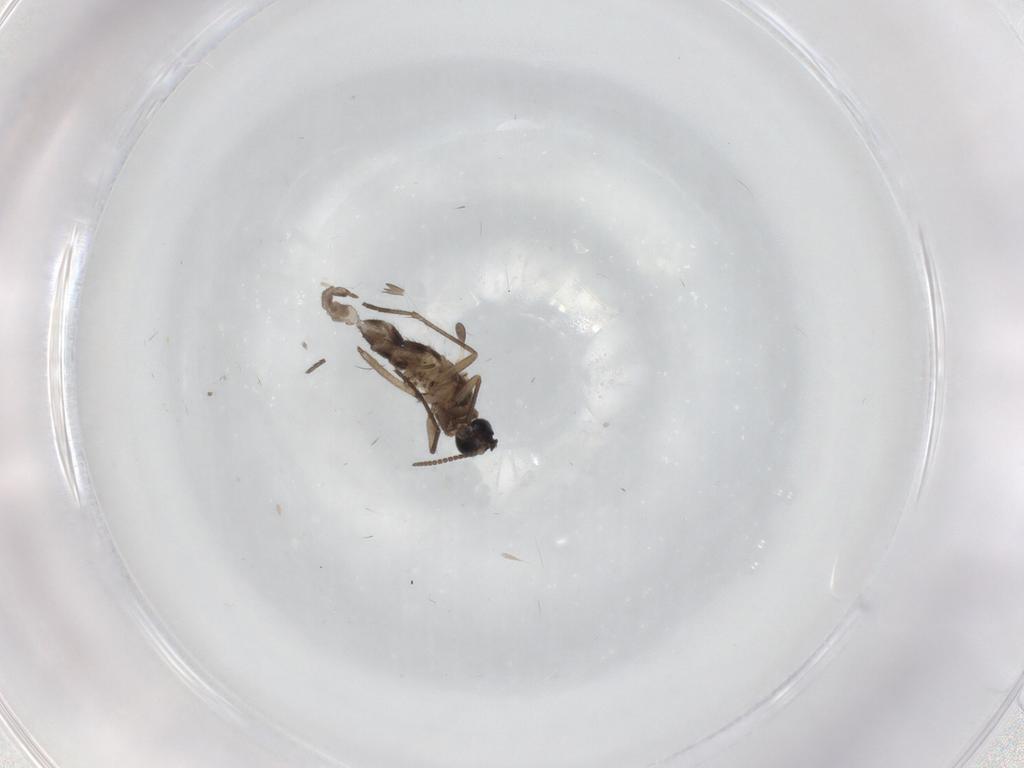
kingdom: Animalia
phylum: Arthropoda
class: Insecta
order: Diptera
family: Sciaridae
